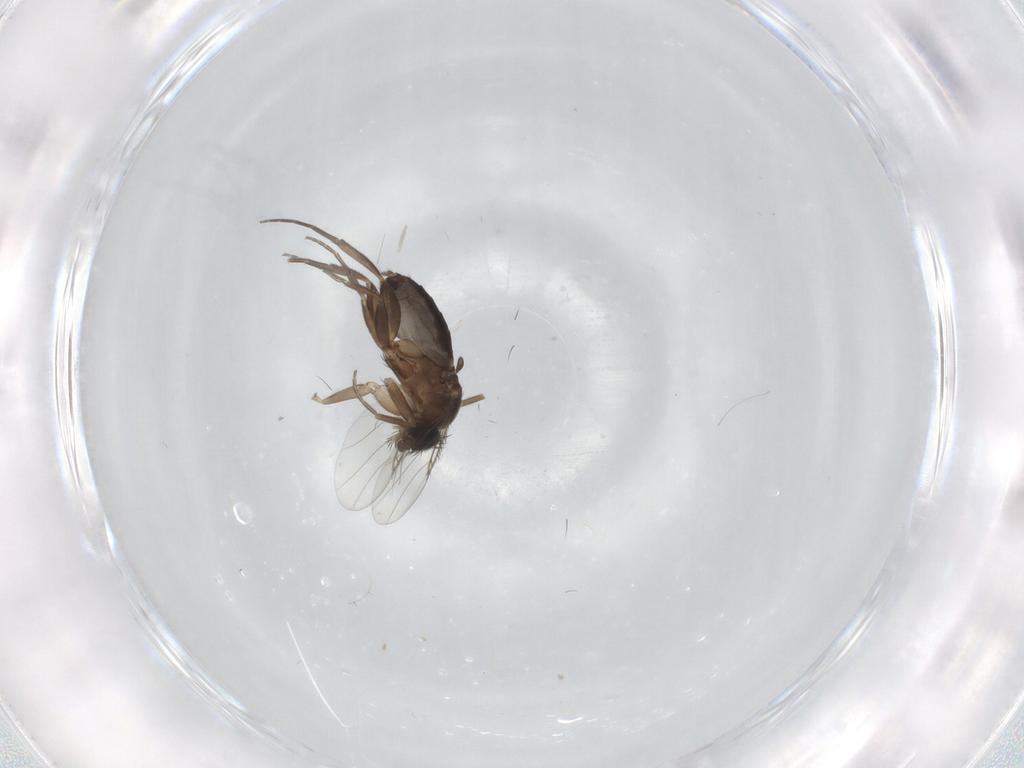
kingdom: Animalia
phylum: Arthropoda
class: Insecta
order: Diptera
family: Phoridae
